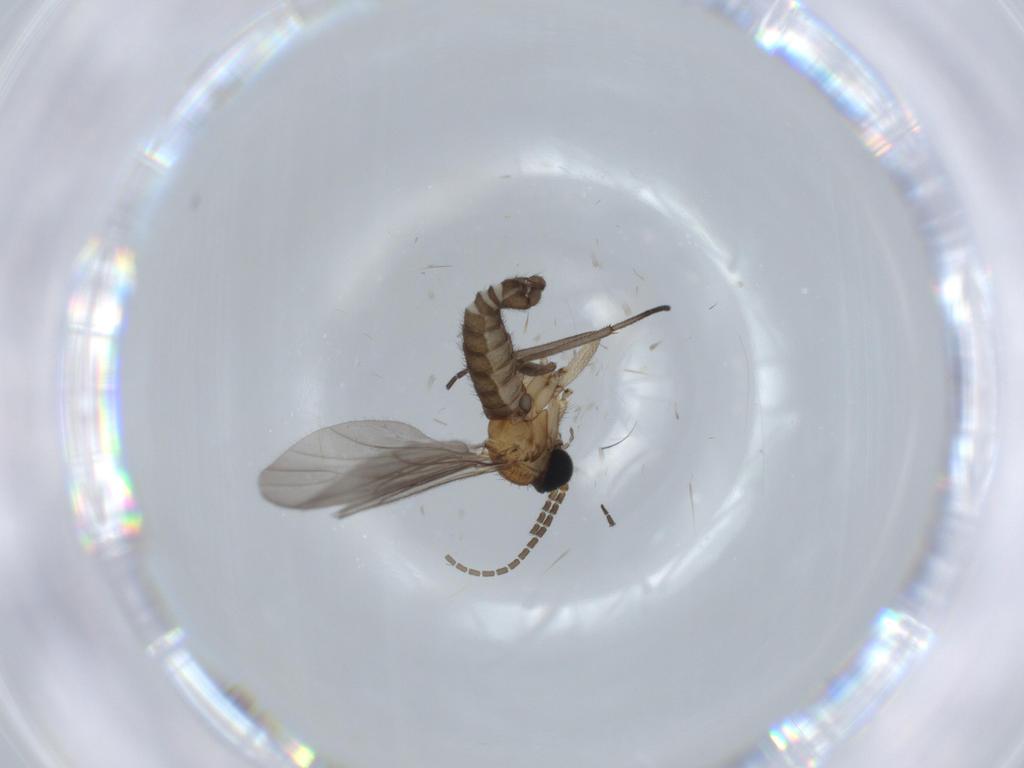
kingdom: Animalia
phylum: Arthropoda
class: Insecta
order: Diptera
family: Sciaridae
